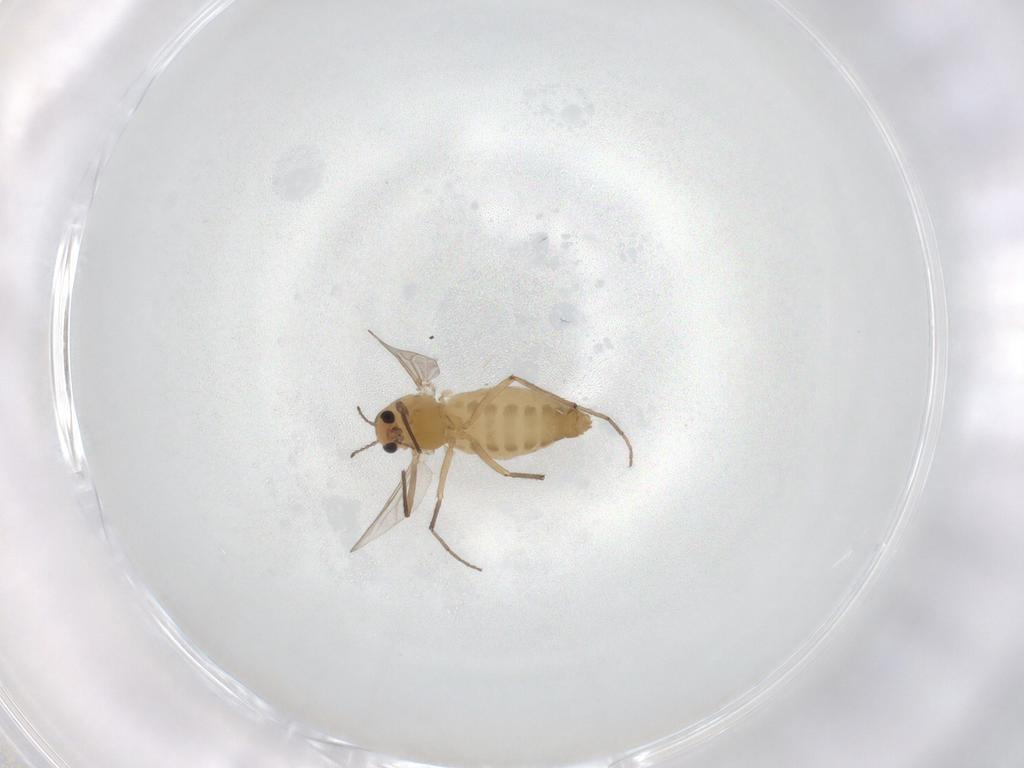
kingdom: Animalia
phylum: Arthropoda
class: Insecta
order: Diptera
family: Chironomidae
